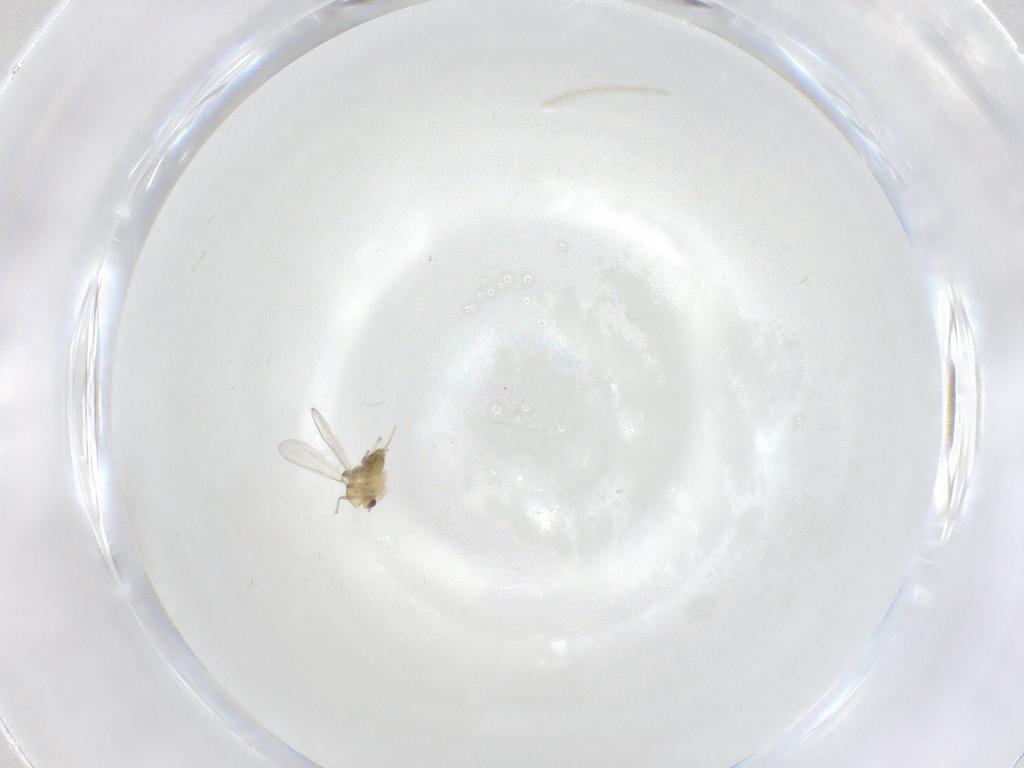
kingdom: Animalia
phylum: Arthropoda
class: Insecta
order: Diptera
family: Chironomidae
